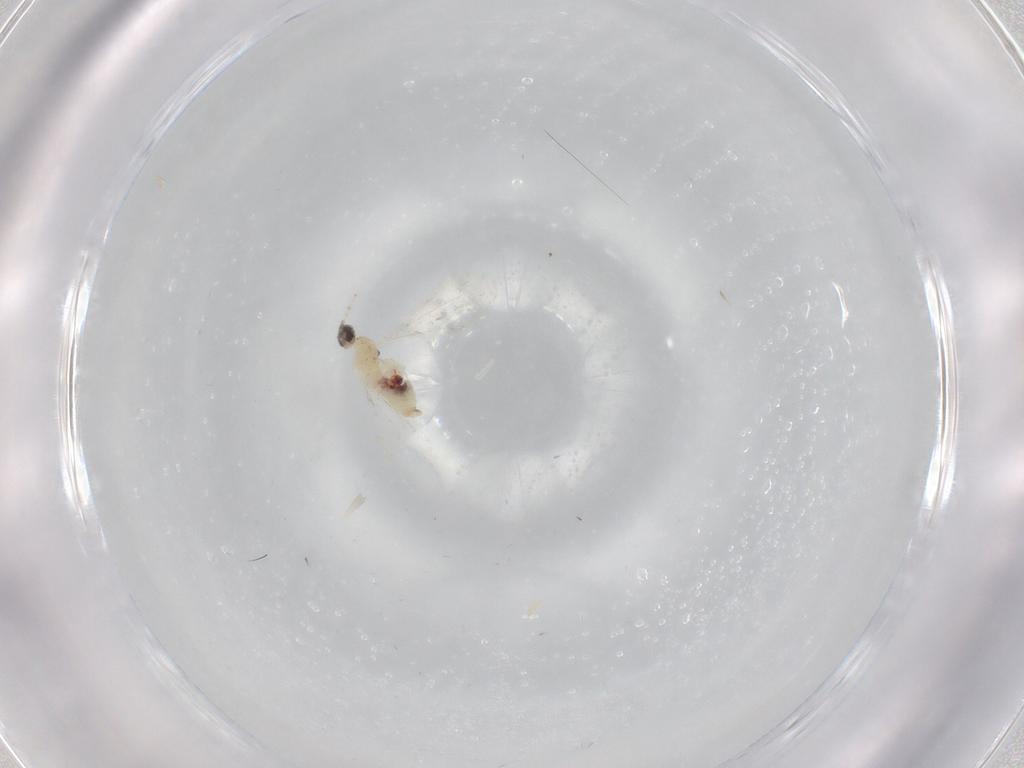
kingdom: Animalia
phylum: Arthropoda
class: Insecta
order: Diptera
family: Cecidomyiidae
